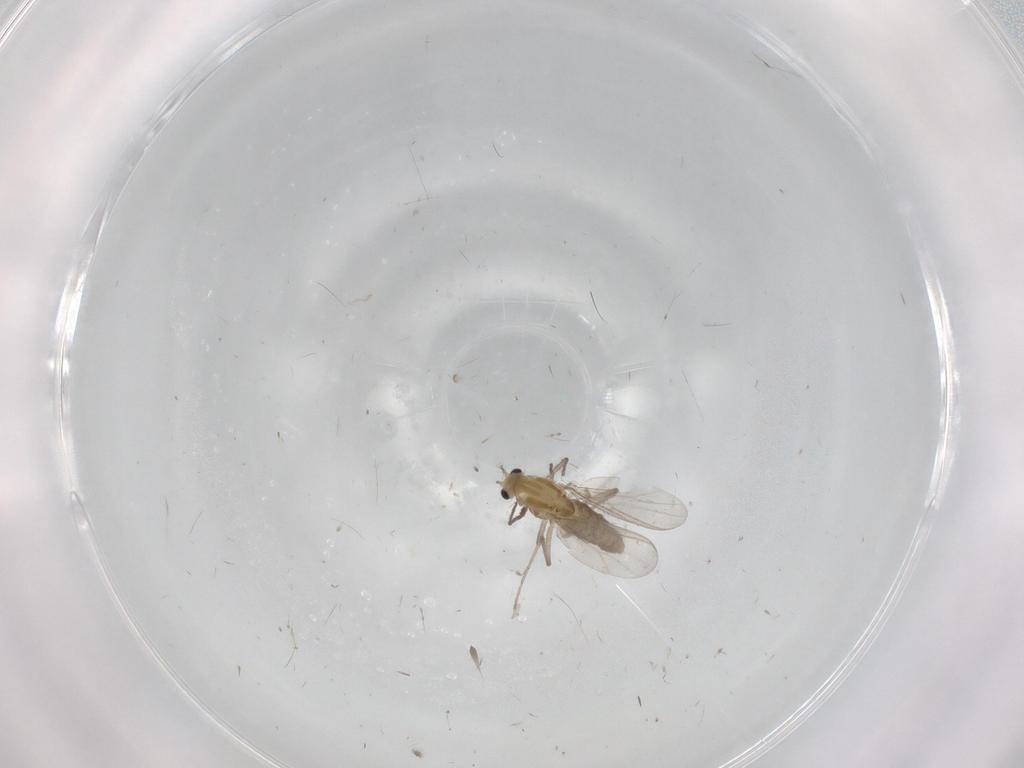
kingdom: Animalia
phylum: Arthropoda
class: Insecta
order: Diptera
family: Chironomidae
